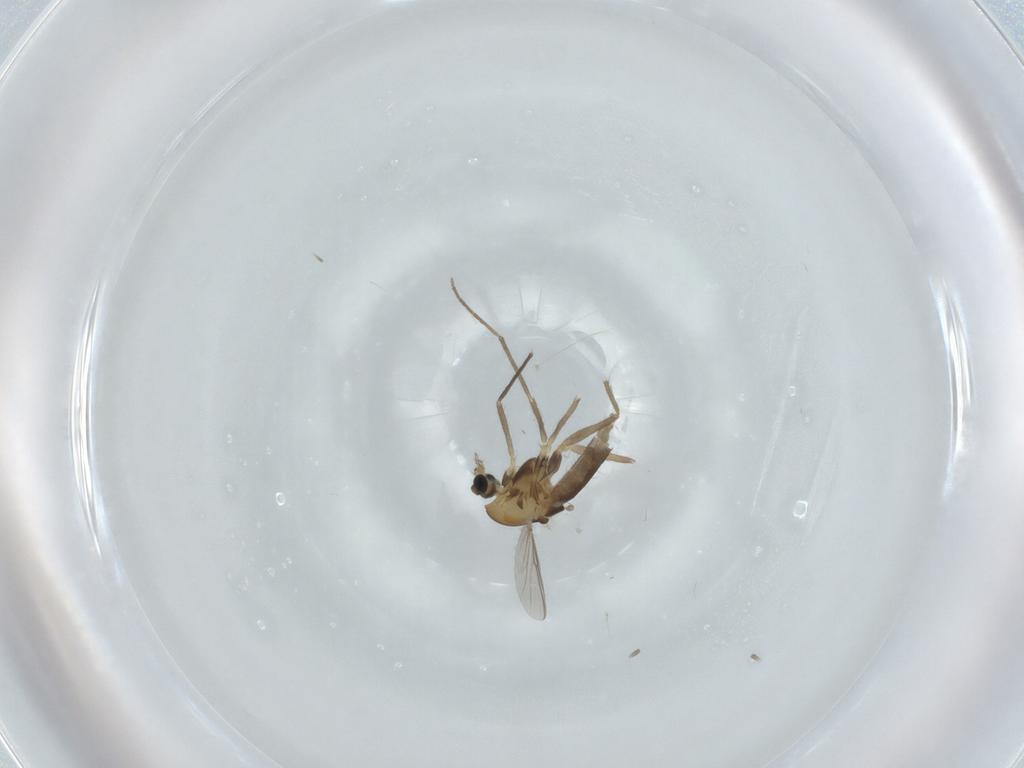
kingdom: Animalia
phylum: Arthropoda
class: Insecta
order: Diptera
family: Chironomidae
